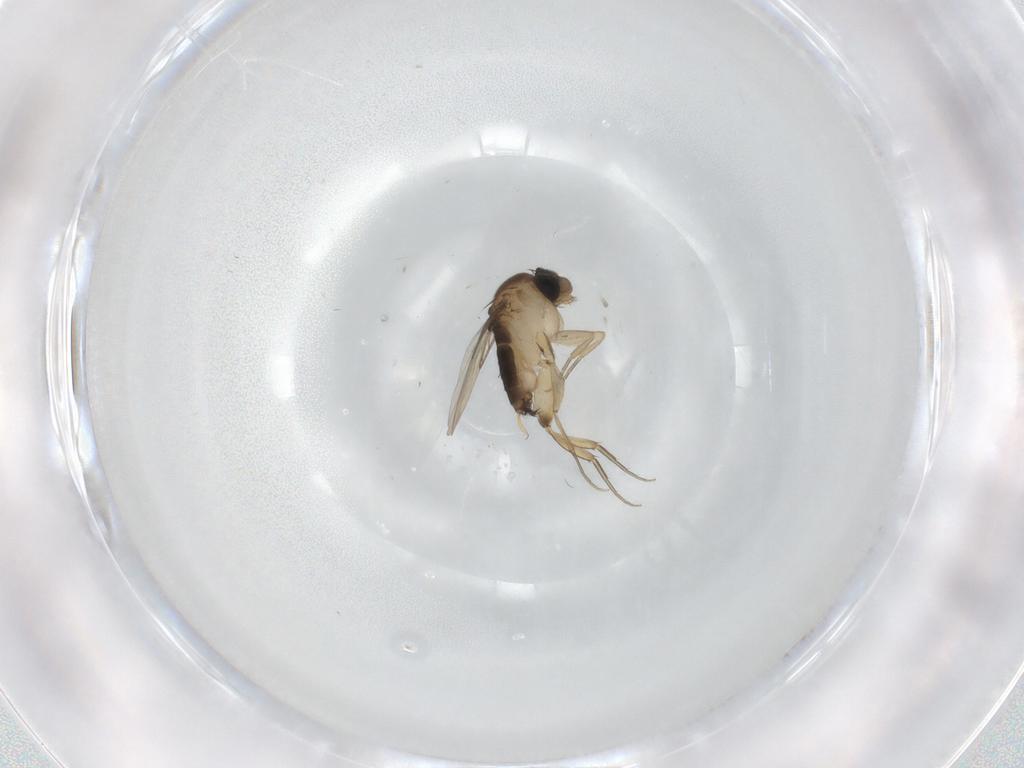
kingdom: Animalia
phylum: Arthropoda
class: Insecta
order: Diptera
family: Phoridae
